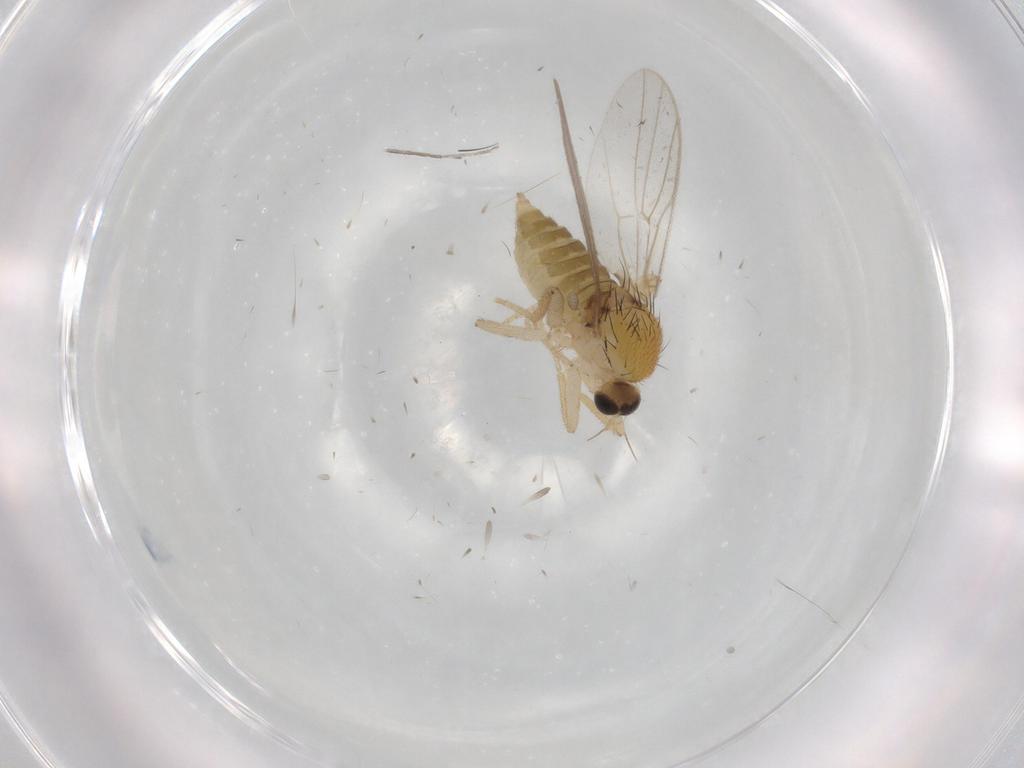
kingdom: Animalia
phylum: Arthropoda
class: Insecta
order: Diptera
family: Hybotidae
